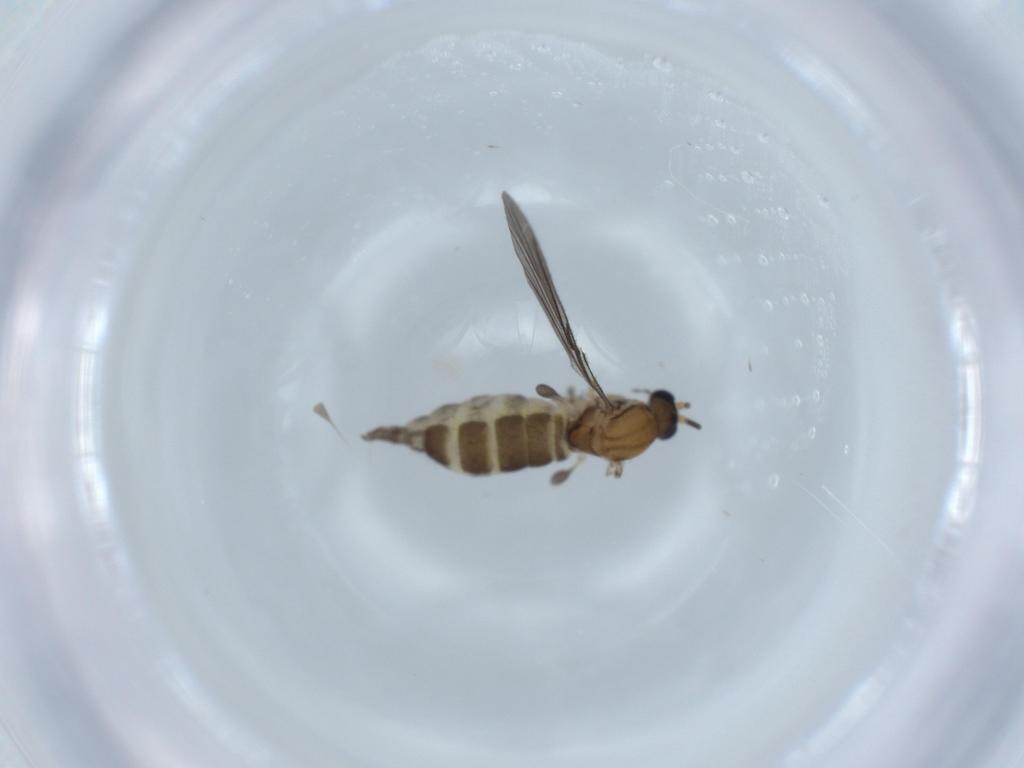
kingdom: Animalia
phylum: Arthropoda
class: Insecta
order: Diptera
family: Sciaridae
